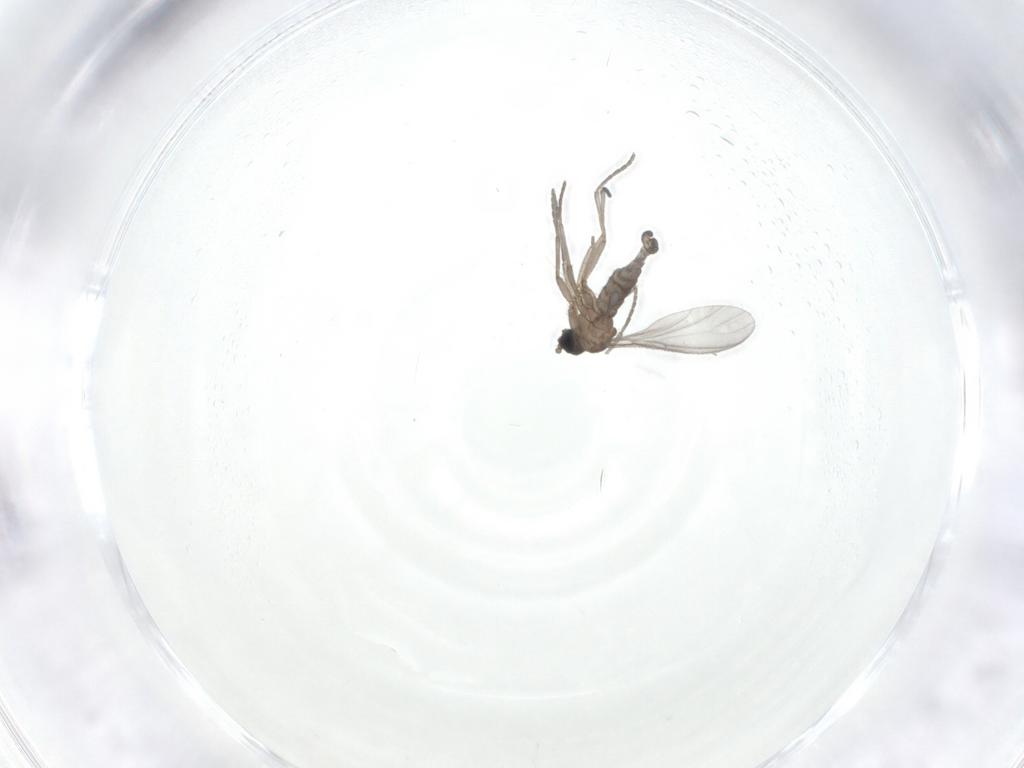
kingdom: Animalia
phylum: Arthropoda
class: Insecta
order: Diptera
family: Sciaridae
